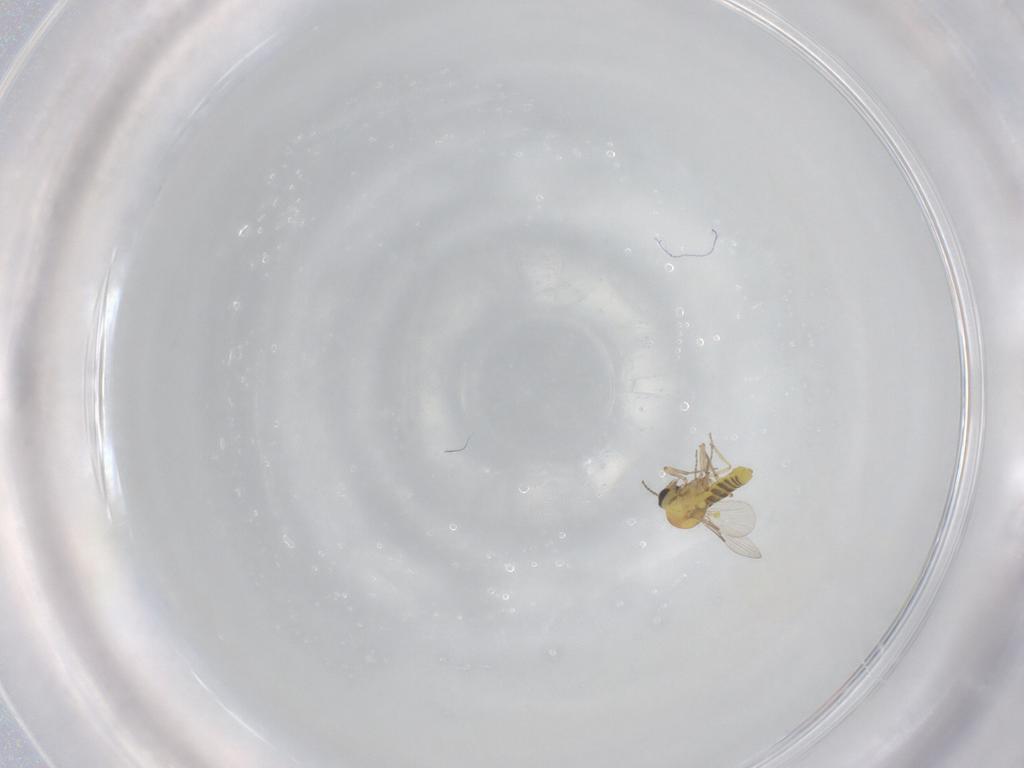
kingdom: Animalia
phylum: Arthropoda
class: Insecta
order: Diptera
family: Ceratopogonidae
